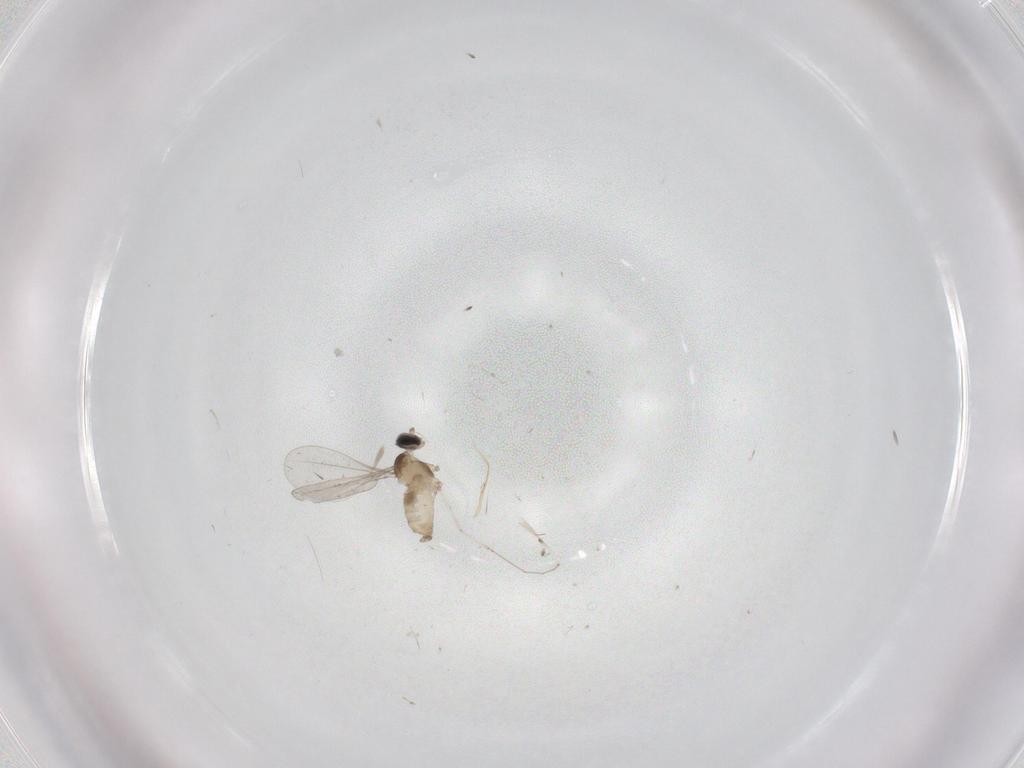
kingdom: Animalia
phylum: Arthropoda
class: Insecta
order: Diptera
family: Cecidomyiidae
